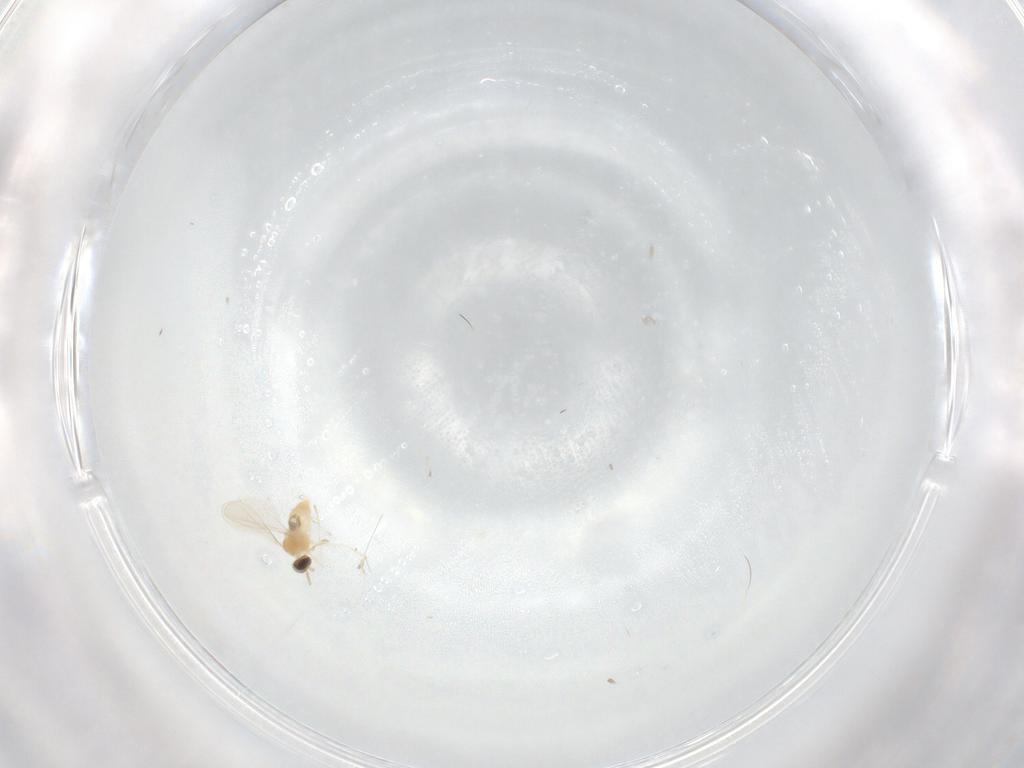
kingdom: Animalia
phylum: Arthropoda
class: Insecta
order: Diptera
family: Cecidomyiidae
